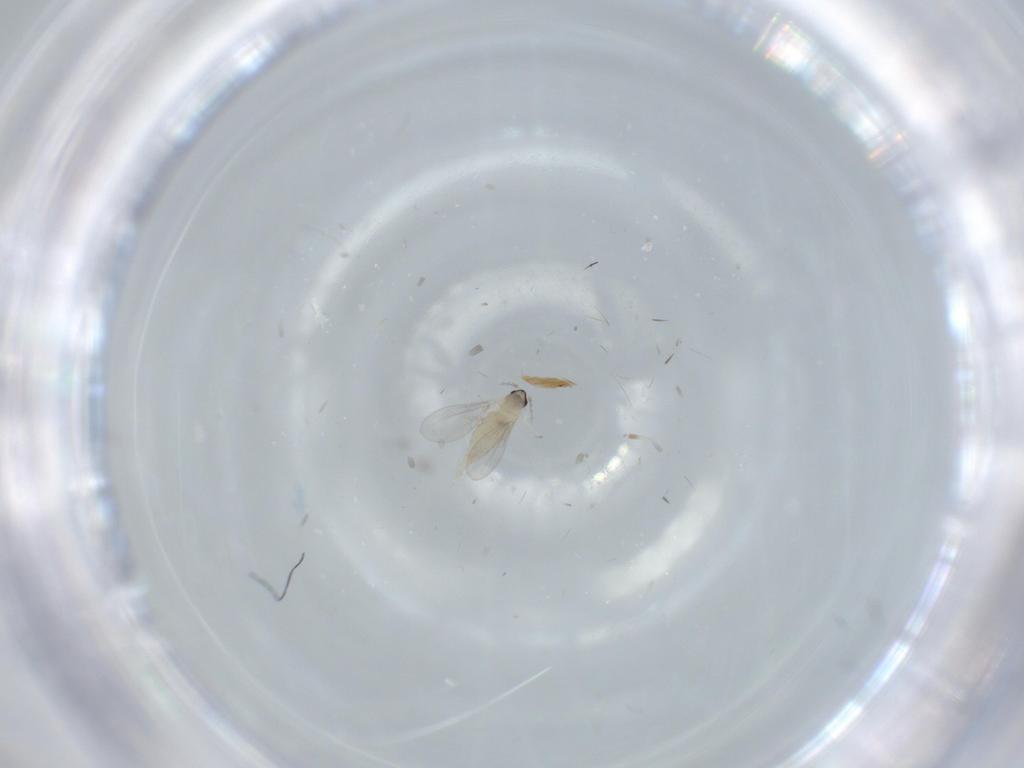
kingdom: Animalia
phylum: Arthropoda
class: Insecta
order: Diptera
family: Cecidomyiidae
